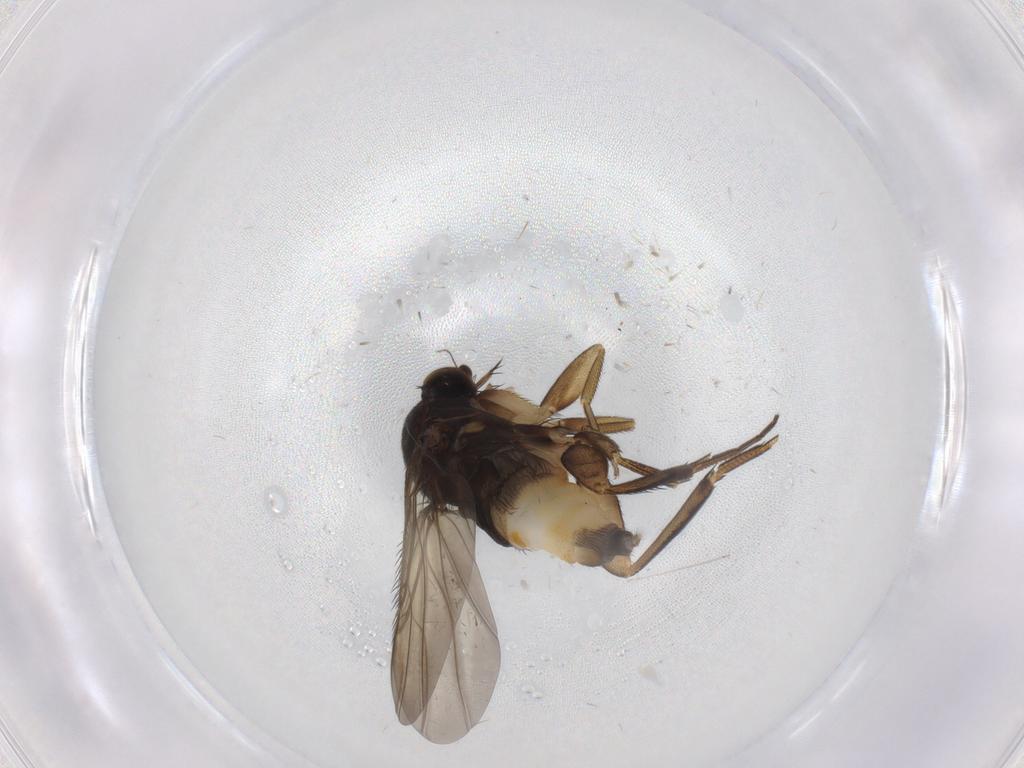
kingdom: Animalia
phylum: Arthropoda
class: Insecta
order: Diptera
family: Phoridae
